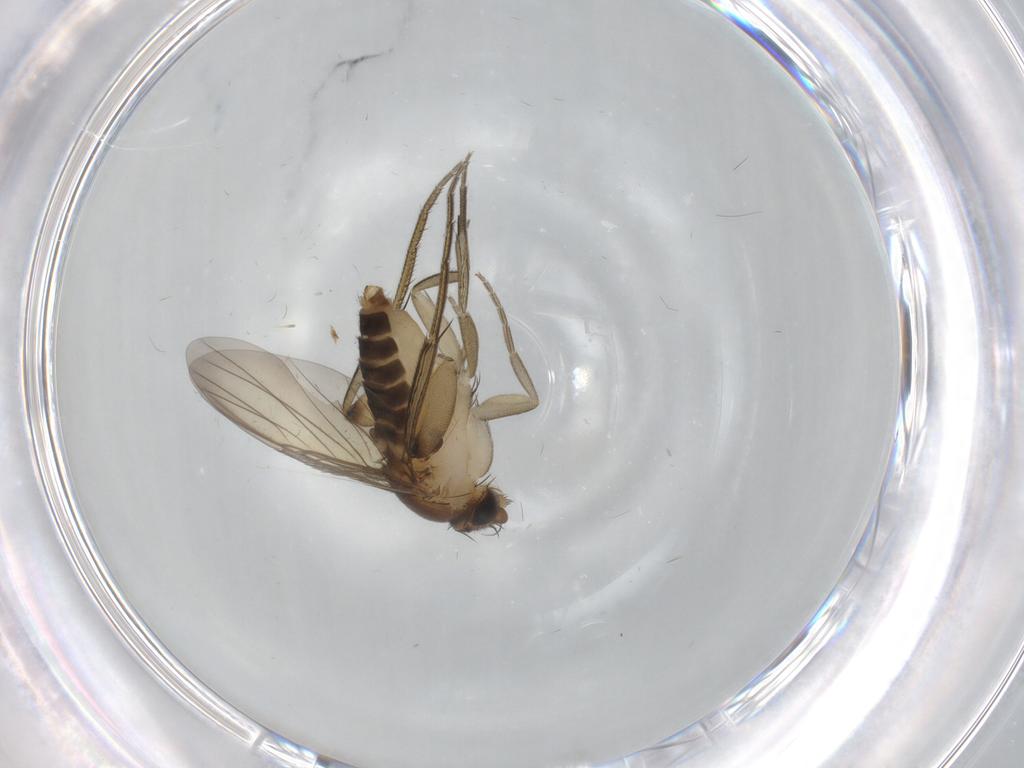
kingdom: Animalia
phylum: Arthropoda
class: Insecta
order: Diptera
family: Phoridae
